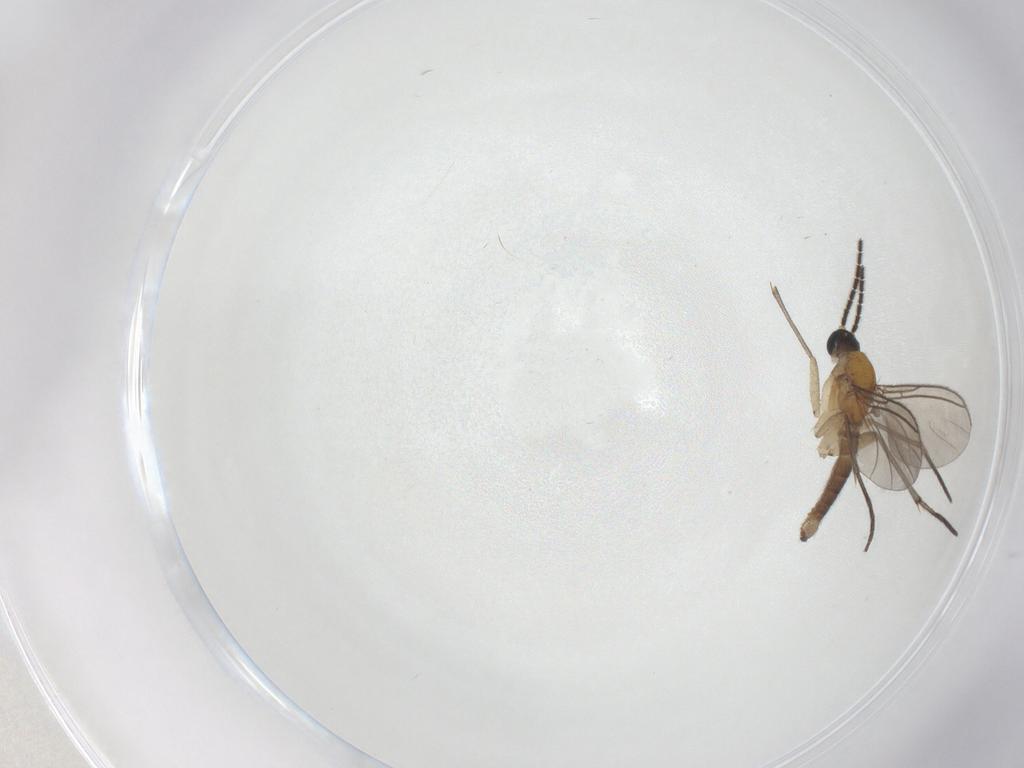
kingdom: Animalia
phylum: Arthropoda
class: Insecta
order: Diptera
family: Sciaridae
